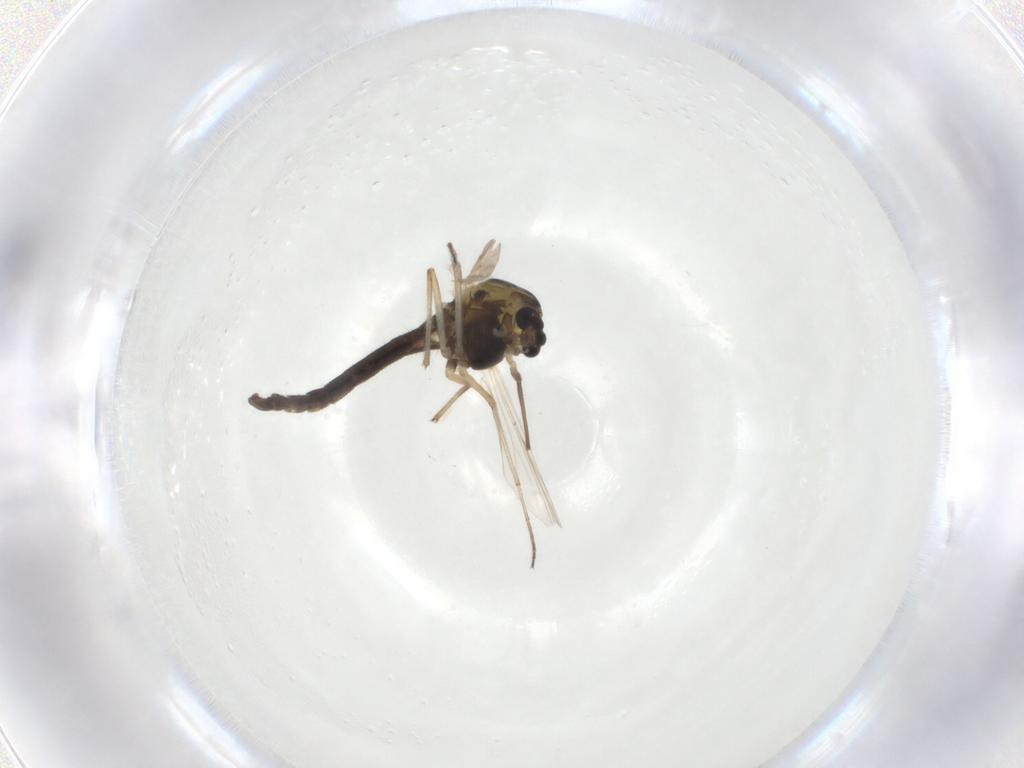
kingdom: Animalia
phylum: Arthropoda
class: Insecta
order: Diptera
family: Chironomidae
